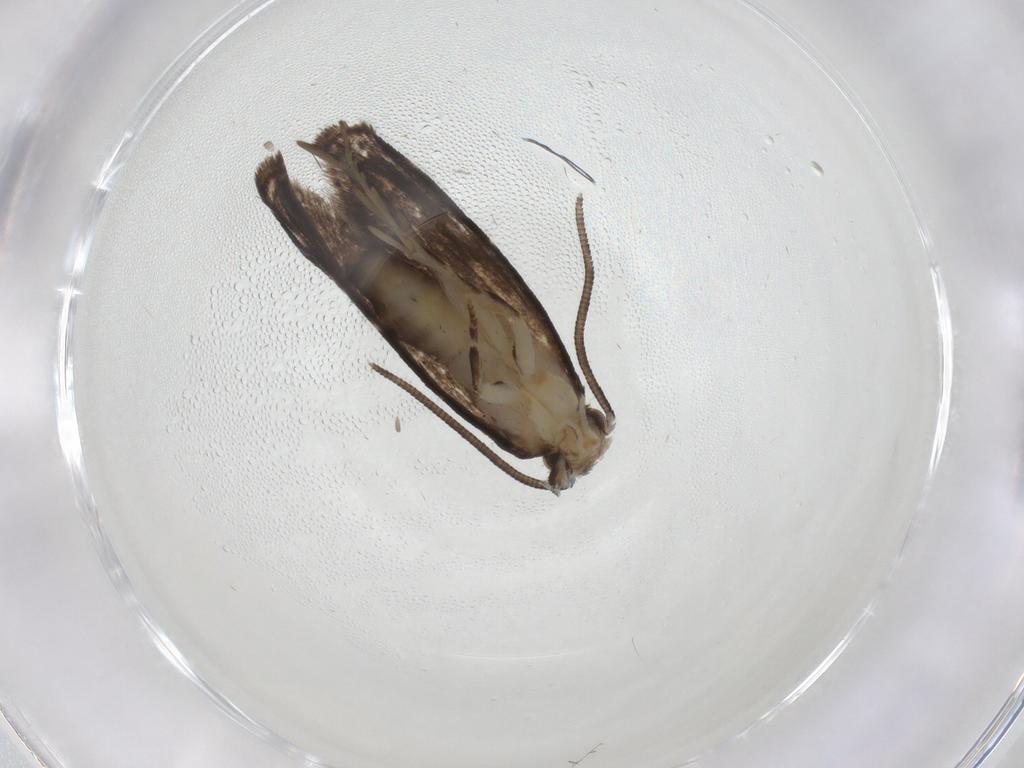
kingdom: Animalia
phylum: Arthropoda
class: Insecta
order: Lepidoptera
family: Dryadaulidae
